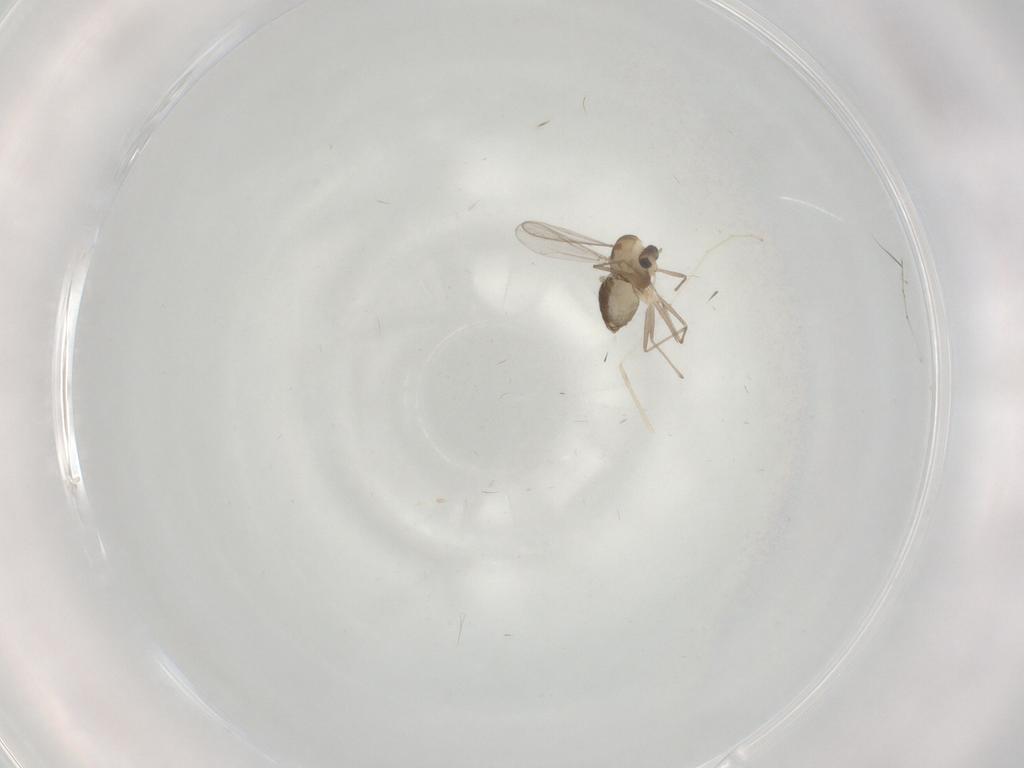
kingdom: Animalia
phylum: Arthropoda
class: Insecta
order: Diptera
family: Chironomidae
